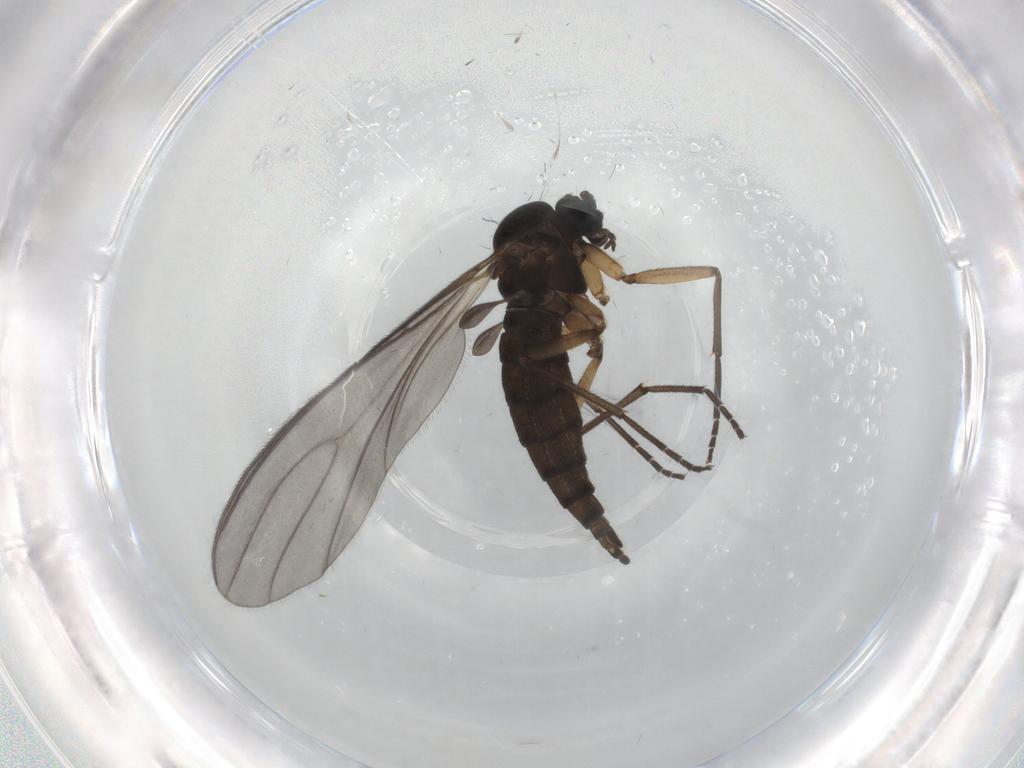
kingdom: Animalia
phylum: Arthropoda
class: Insecta
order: Diptera
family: Sciaridae
